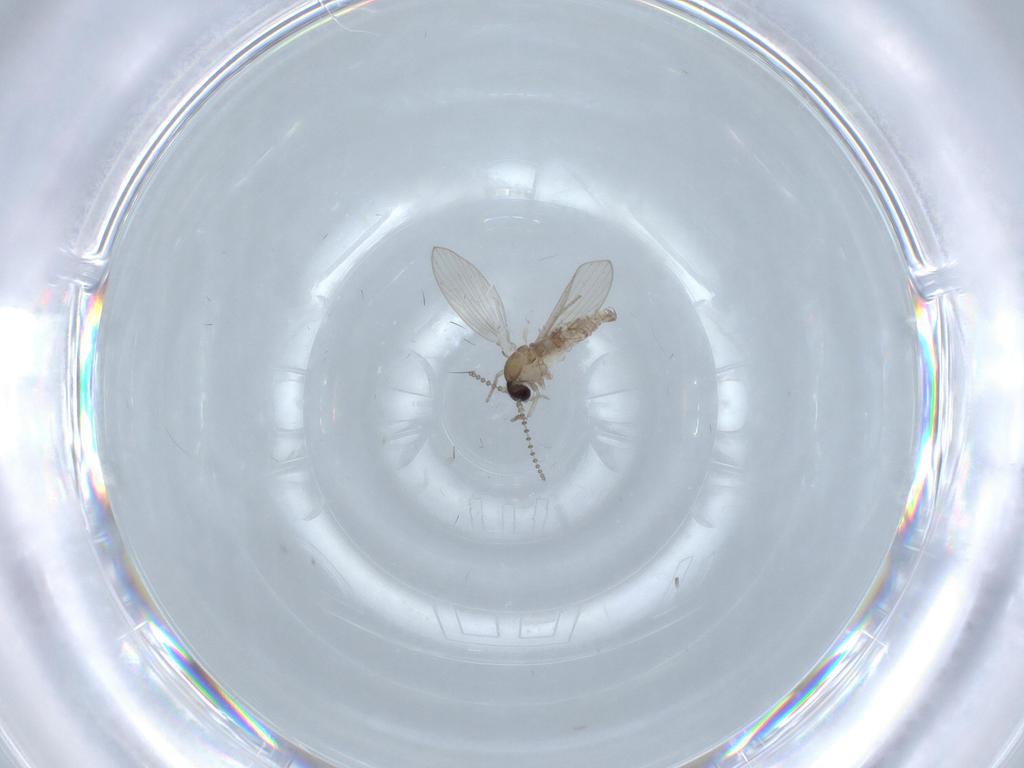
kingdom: Animalia
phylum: Arthropoda
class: Insecta
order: Diptera
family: Psychodidae
